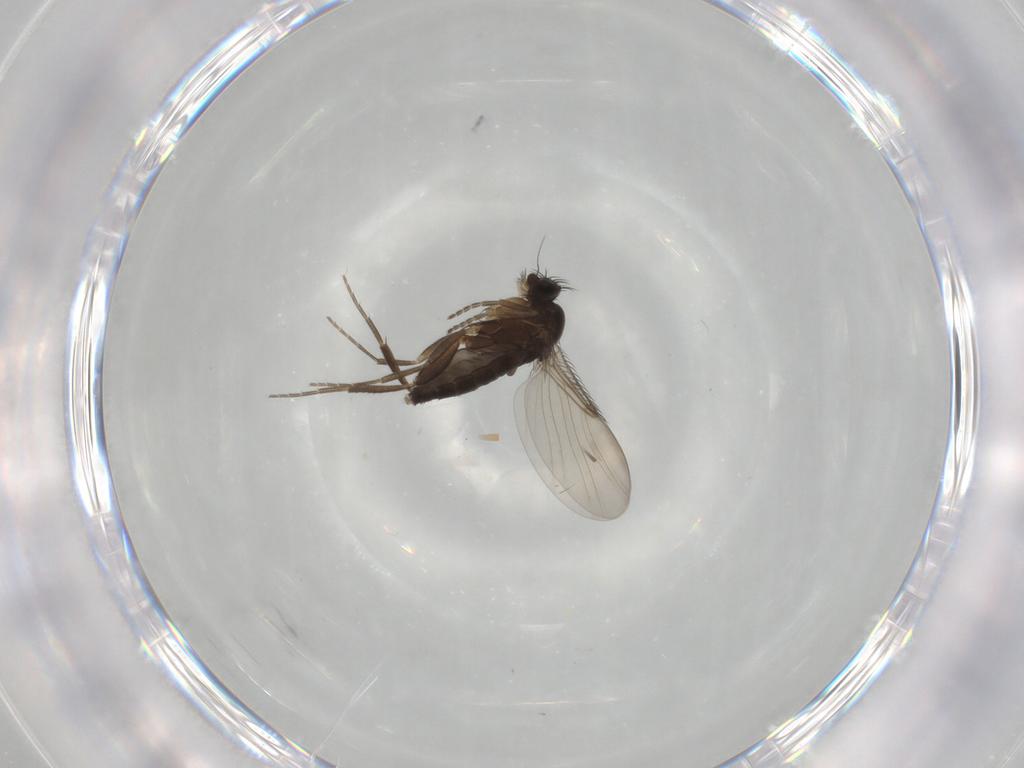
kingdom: Animalia
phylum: Arthropoda
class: Insecta
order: Diptera
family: Phoridae
